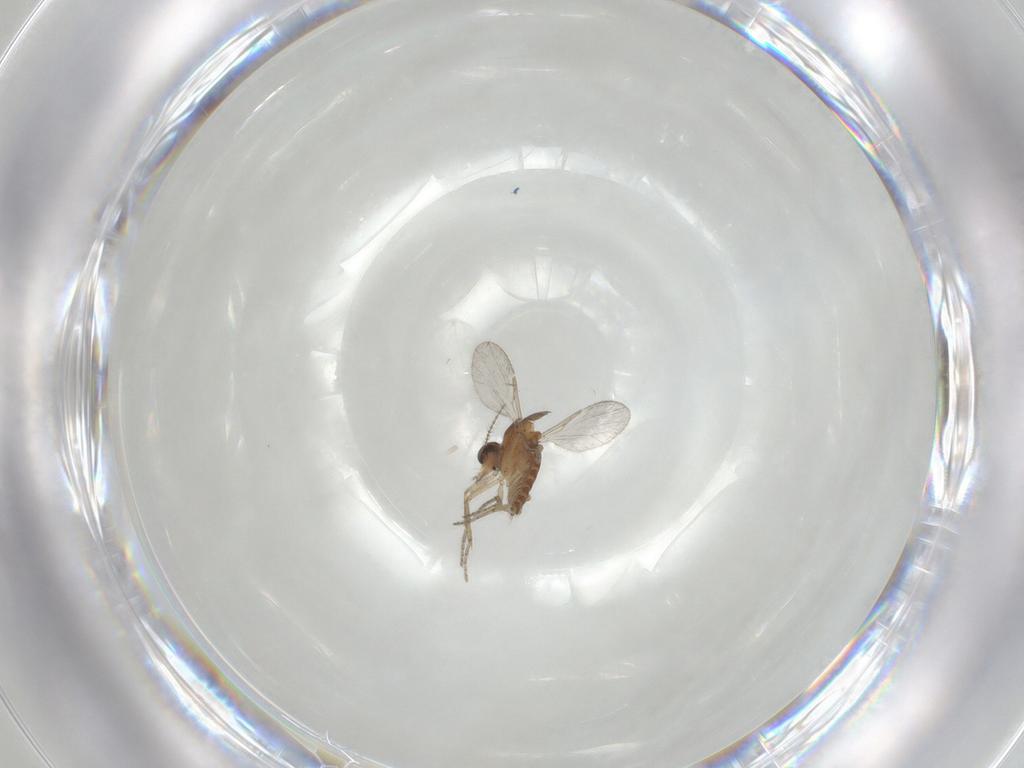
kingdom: Animalia
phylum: Arthropoda
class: Insecta
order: Diptera
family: Ceratopogonidae
